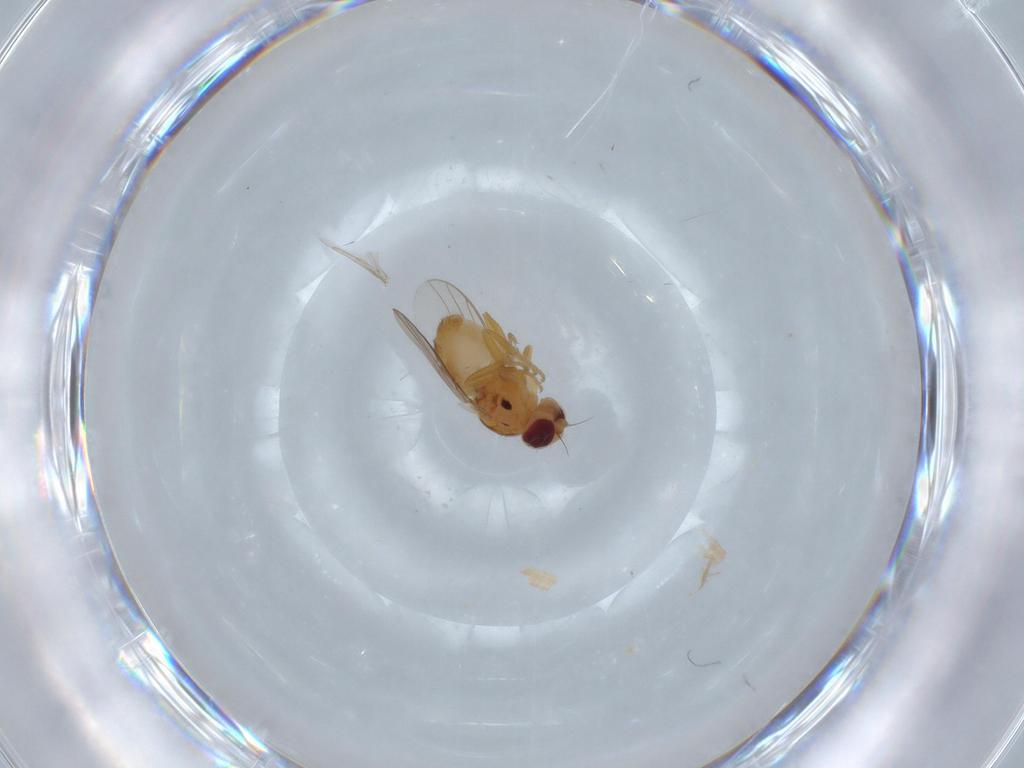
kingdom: Animalia
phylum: Arthropoda
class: Insecta
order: Diptera
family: Chloropidae
